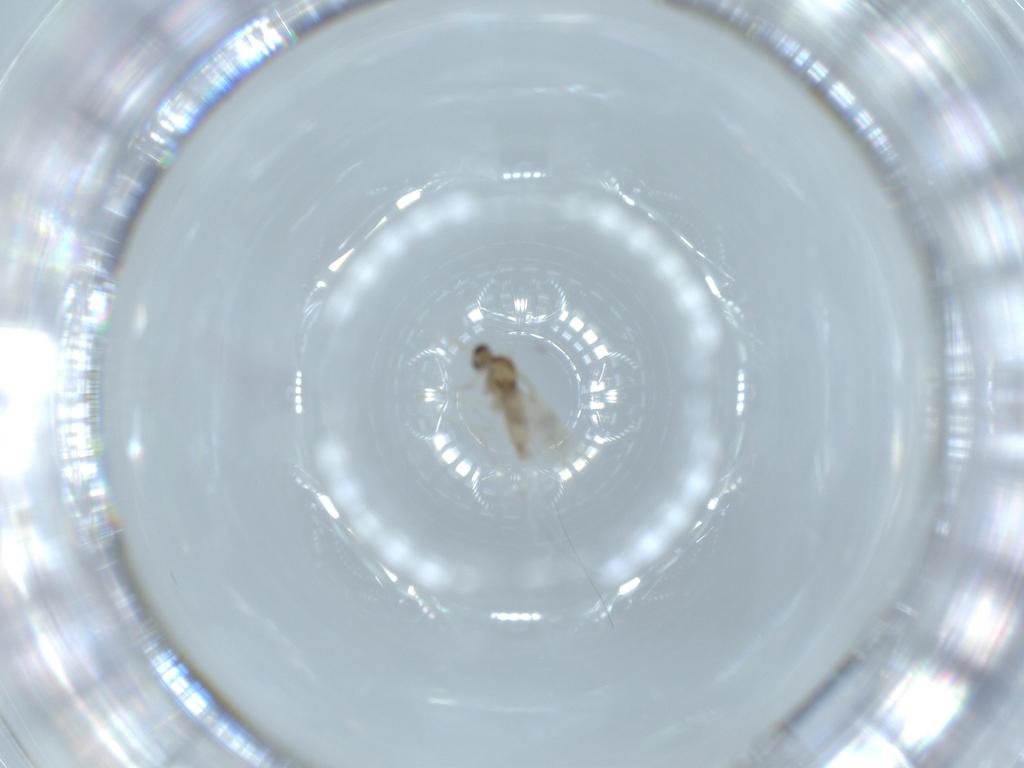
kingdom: Animalia
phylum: Arthropoda
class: Insecta
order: Diptera
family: Cecidomyiidae
